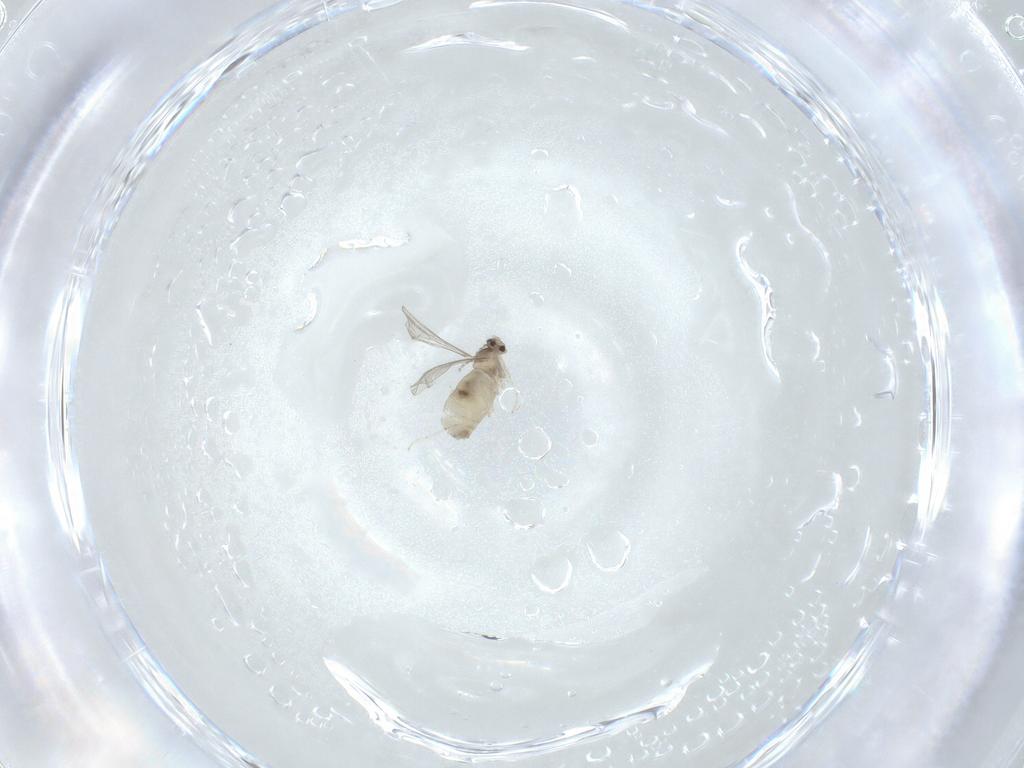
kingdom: Animalia
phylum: Arthropoda
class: Insecta
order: Diptera
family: Cecidomyiidae
